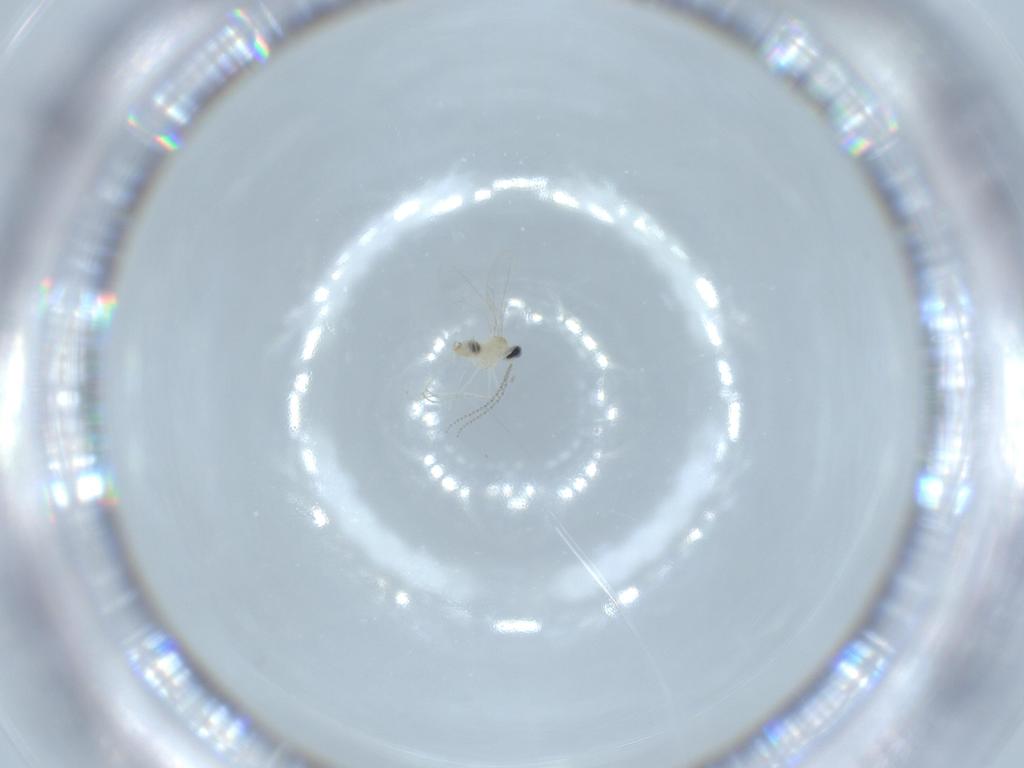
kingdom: Animalia
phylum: Arthropoda
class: Insecta
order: Diptera
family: Cecidomyiidae
